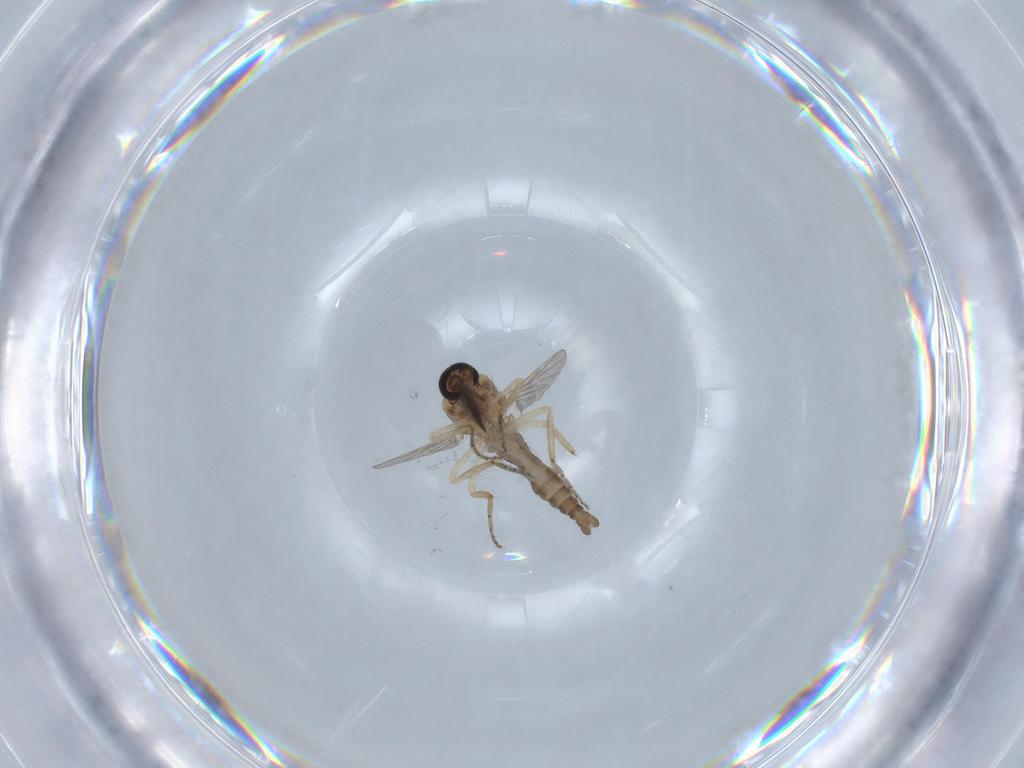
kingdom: Animalia
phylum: Arthropoda
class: Insecta
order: Diptera
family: Ceratopogonidae
